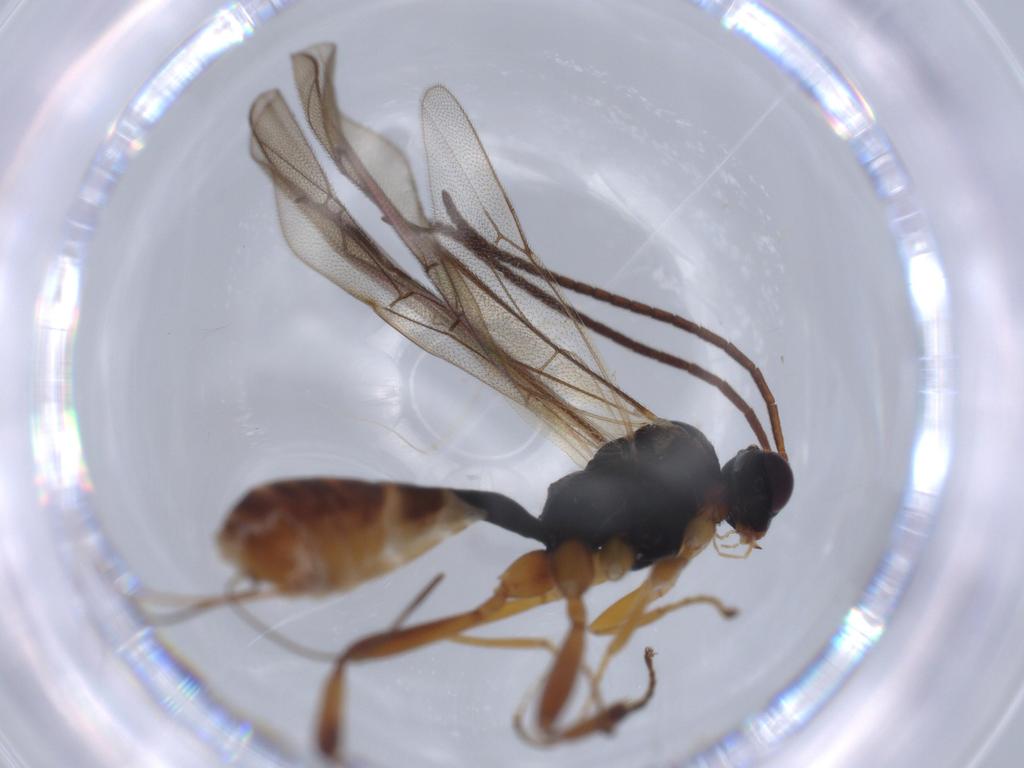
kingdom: Animalia
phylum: Arthropoda
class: Insecta
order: Hymenoptera
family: Ichneumonidae
